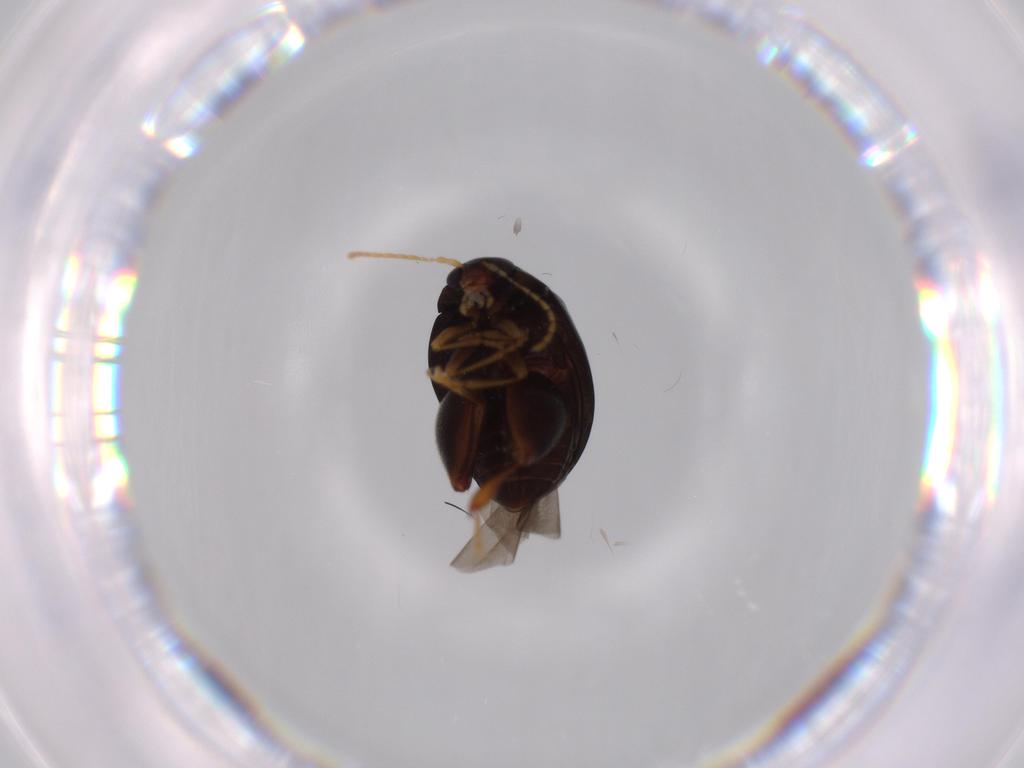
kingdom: Animalia
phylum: Arthropoda
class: Insecta
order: Coleoptera
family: Chrysomelidae
